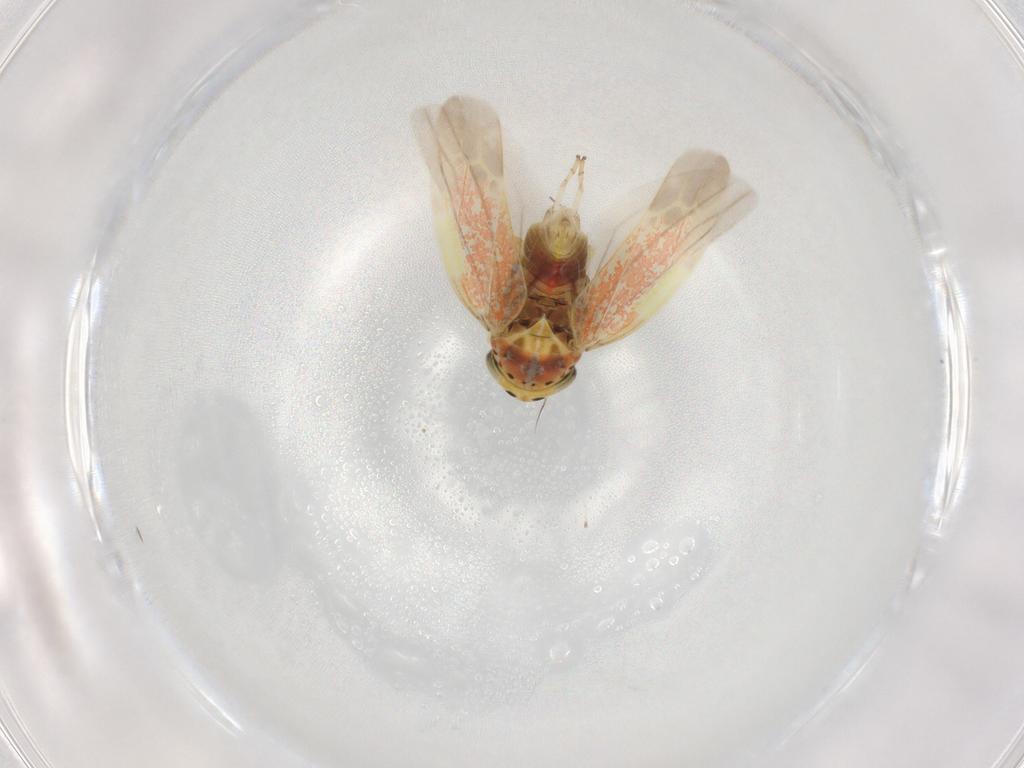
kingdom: Animalia
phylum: Arthropoda
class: Insecta
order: Hemiptera
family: Cicadellidae
